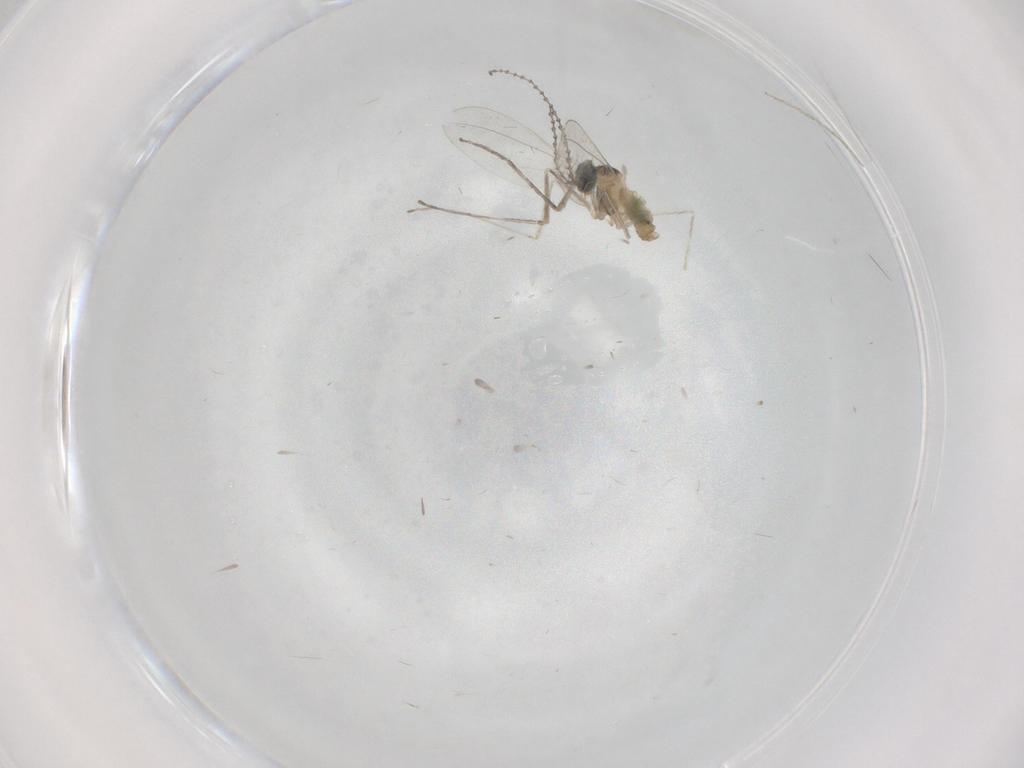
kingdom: Animalia
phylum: Arthropoda
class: Insecta
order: Diptera
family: Cecidomyiidae
